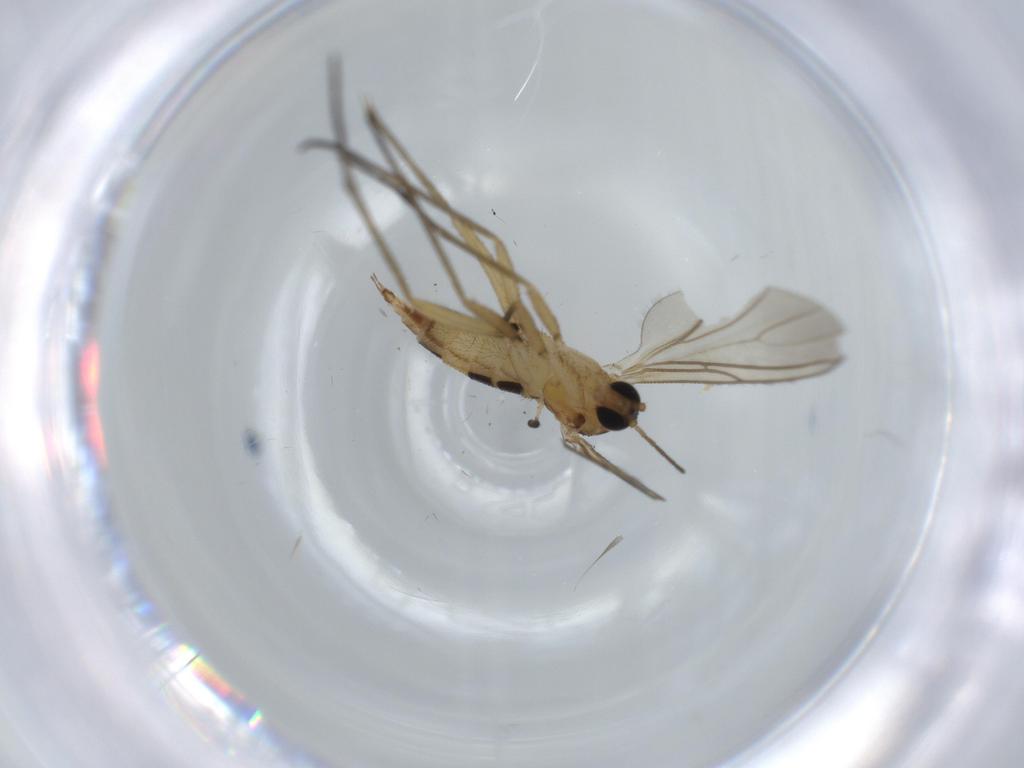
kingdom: Animalia
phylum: Arthropoda
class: Insecta
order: Diptera
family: Sciaridae
